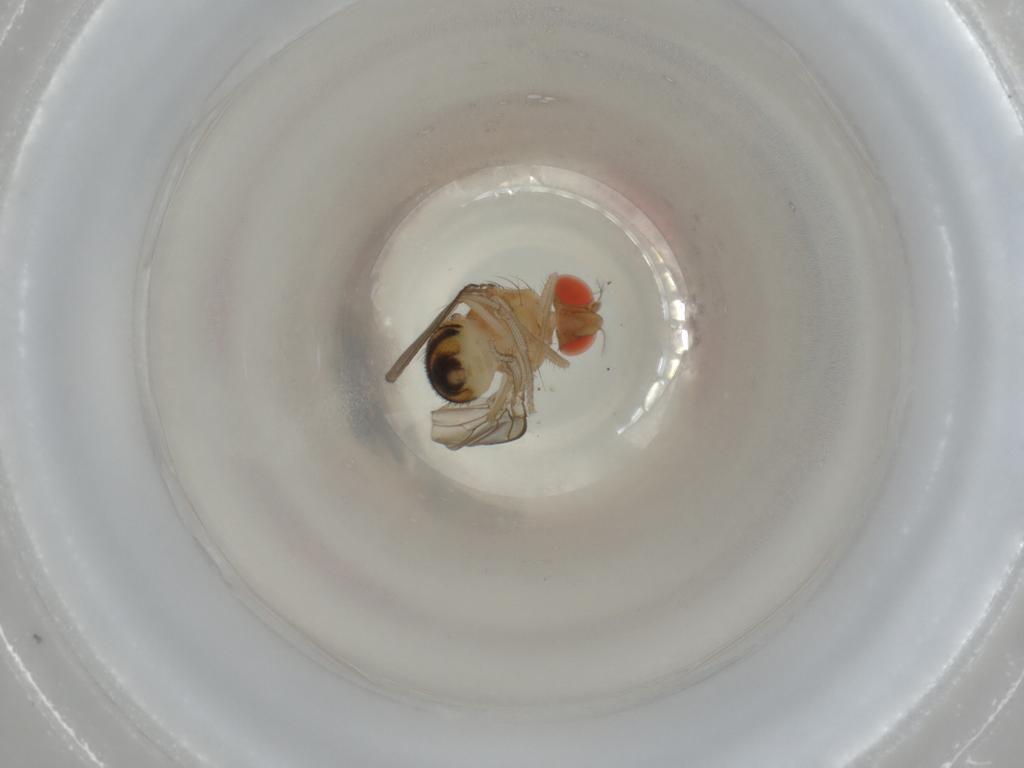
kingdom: Animalia
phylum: Arthropoda
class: Insecta
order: Diptera
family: Drosophilidae
